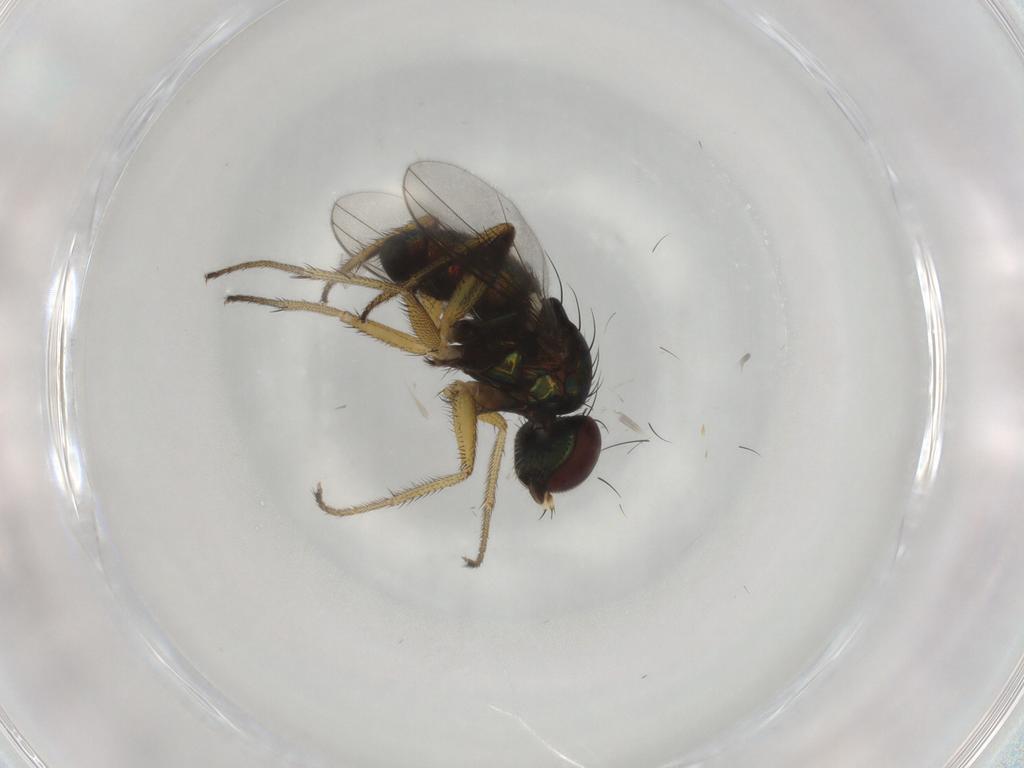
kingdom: Animalia
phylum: Arthropoda
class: Insecta
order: Diptera
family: Dolichopodidae
